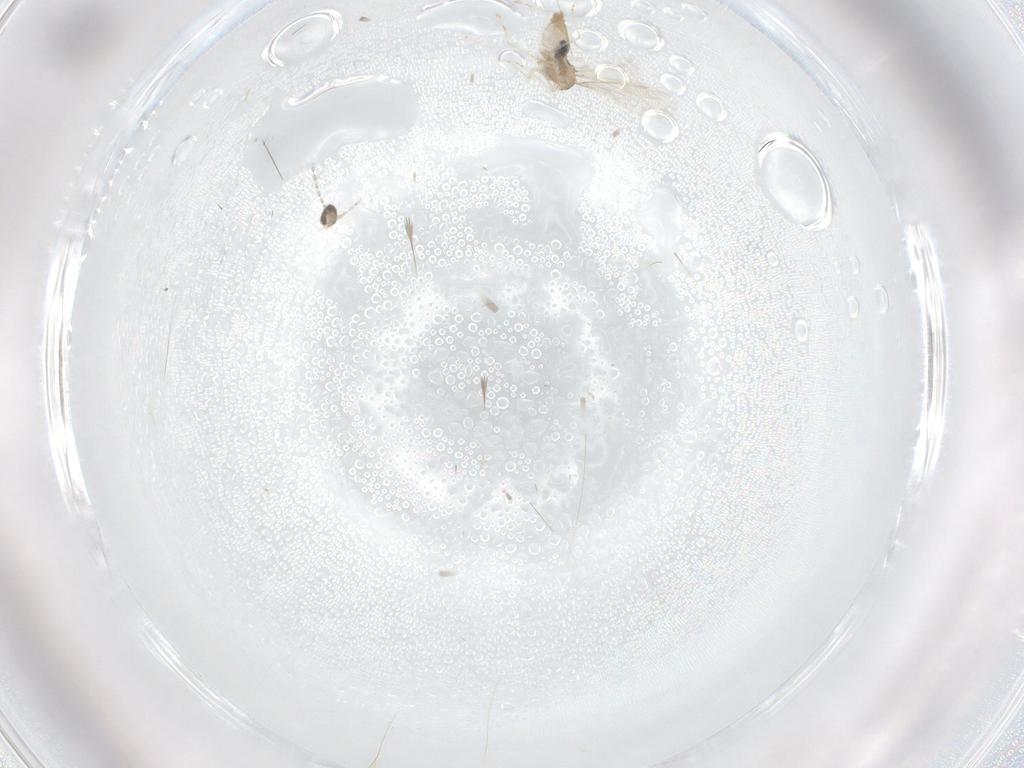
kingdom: Animalia
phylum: Arthropoda
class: Insecta
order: Diptera
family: Cecidomyiidae
